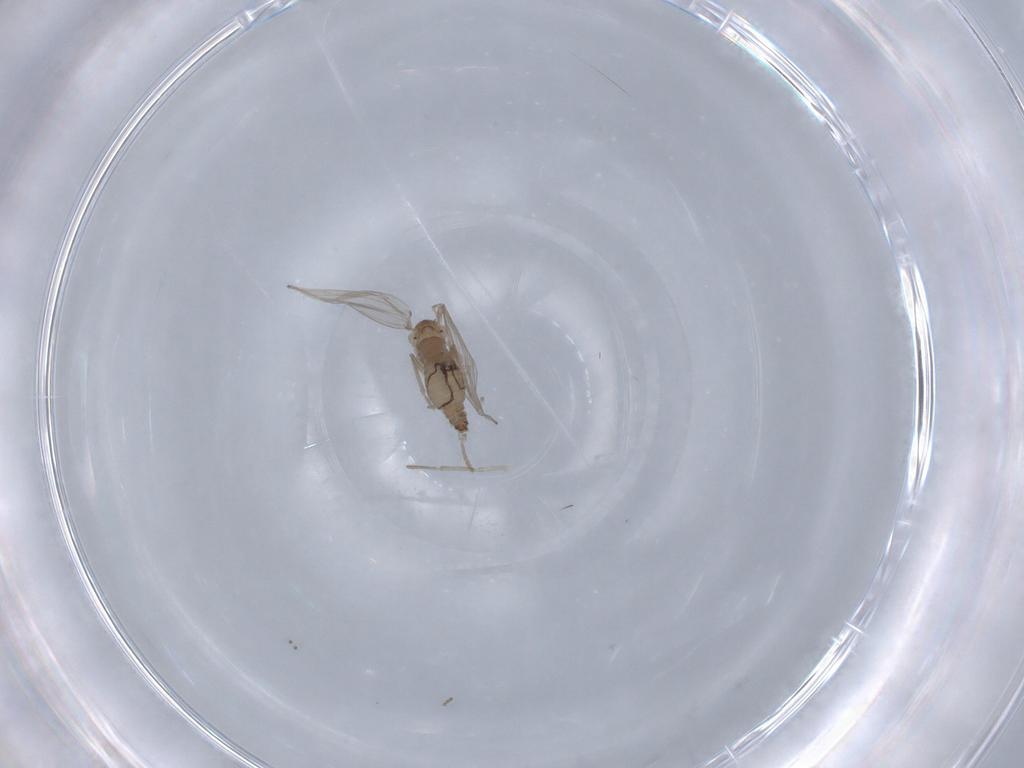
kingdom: Animalia
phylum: Arthropoda
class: Insecta
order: Diptera
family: Psychodidae
